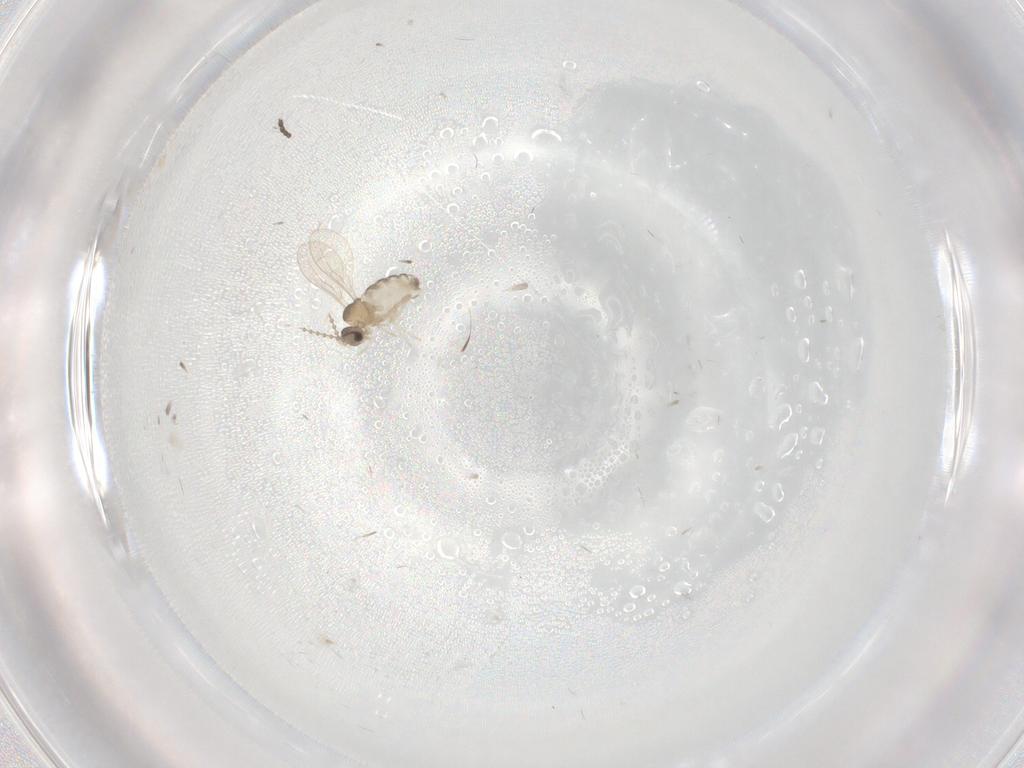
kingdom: Animalia
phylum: Arthropoda
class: Insecta
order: Diptera
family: Cecidomyiidae
